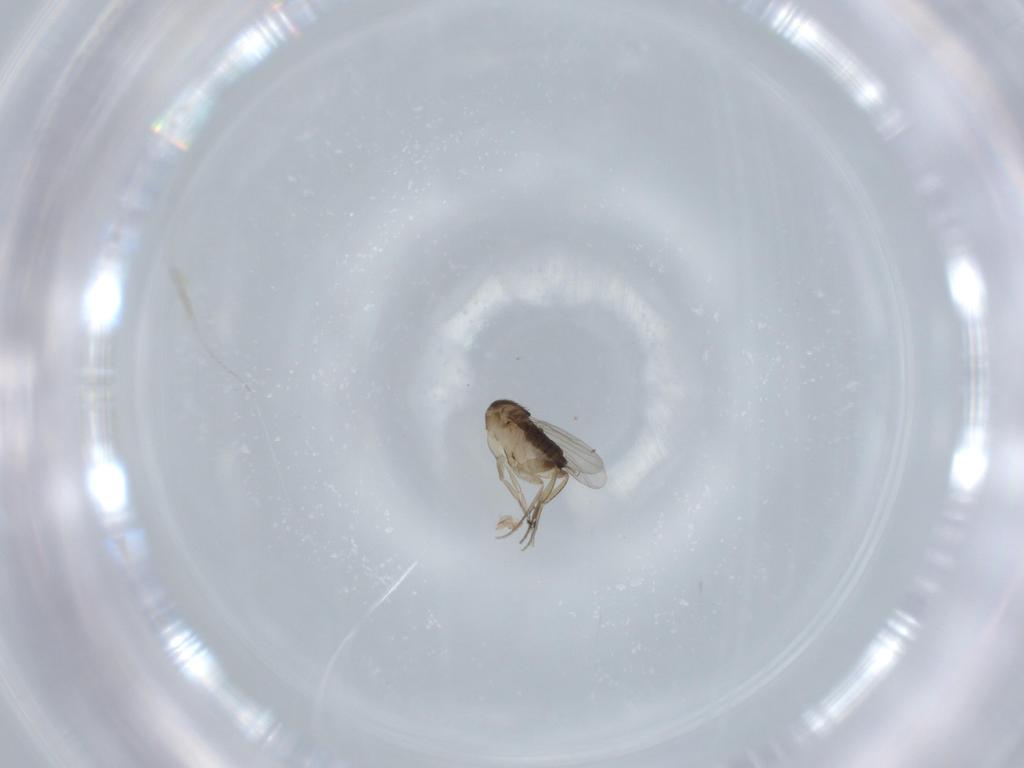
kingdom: Animalia
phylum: Arthropoda
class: Insecta
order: Diptera
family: Phoridae
